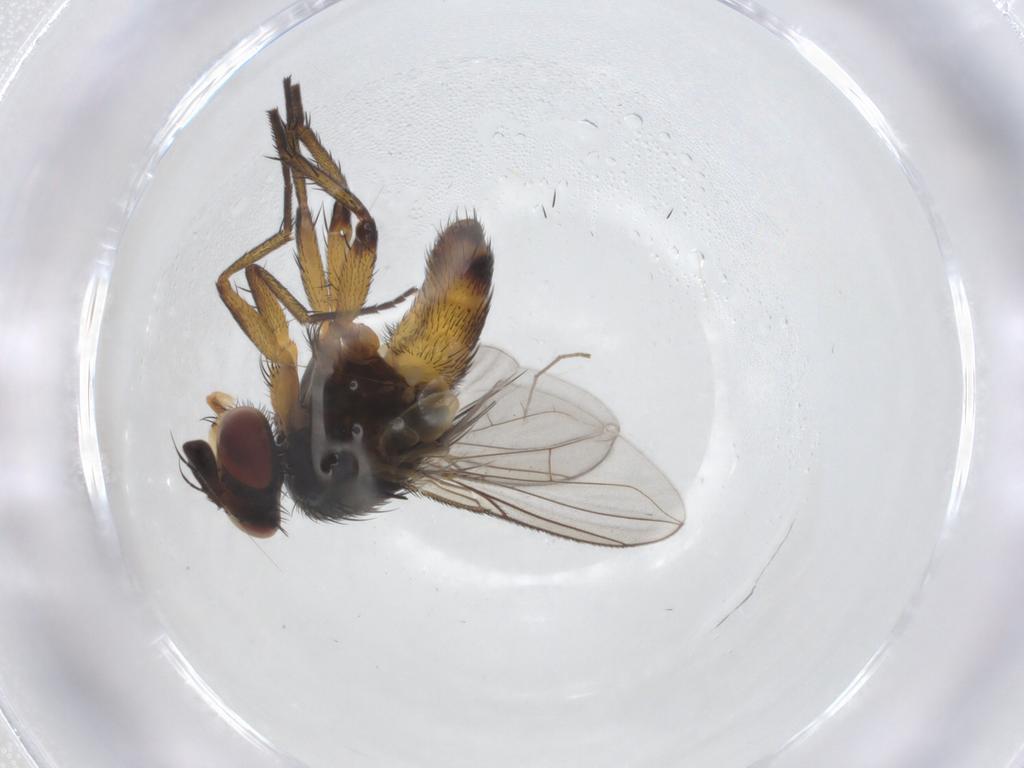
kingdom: Animalia
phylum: Arthropoda
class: Insecta
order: Diptera
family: Tachinidae
